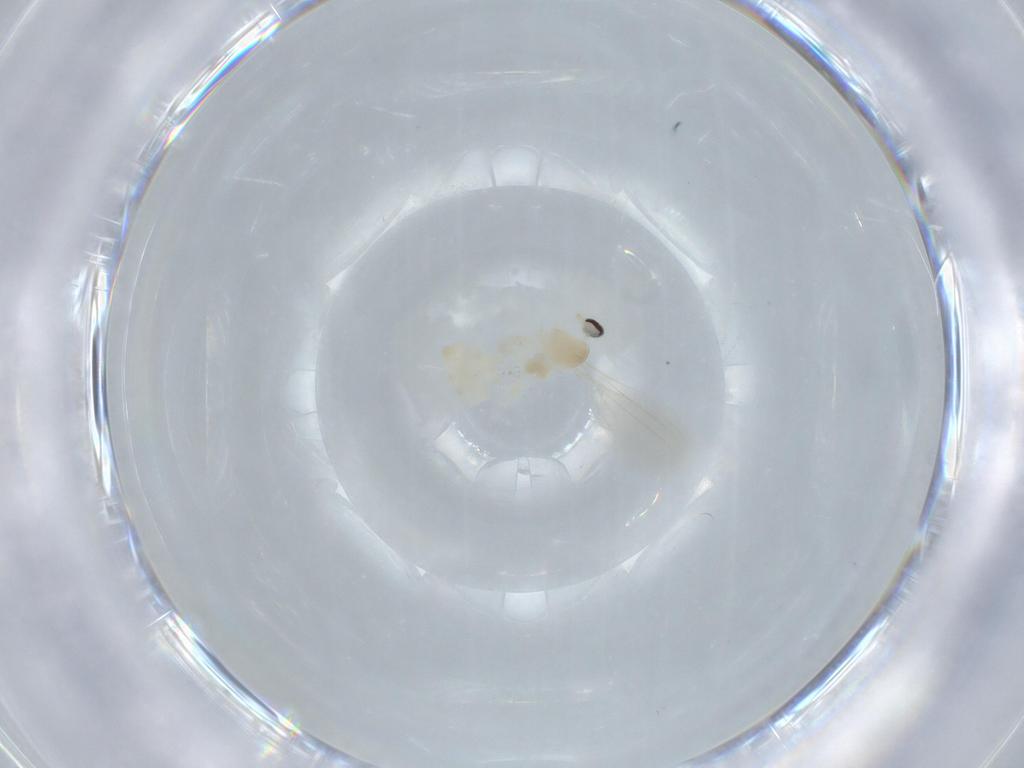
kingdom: Animalia
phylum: Arthropoda
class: Insecta
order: Diptera
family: Cecidomyiidae
